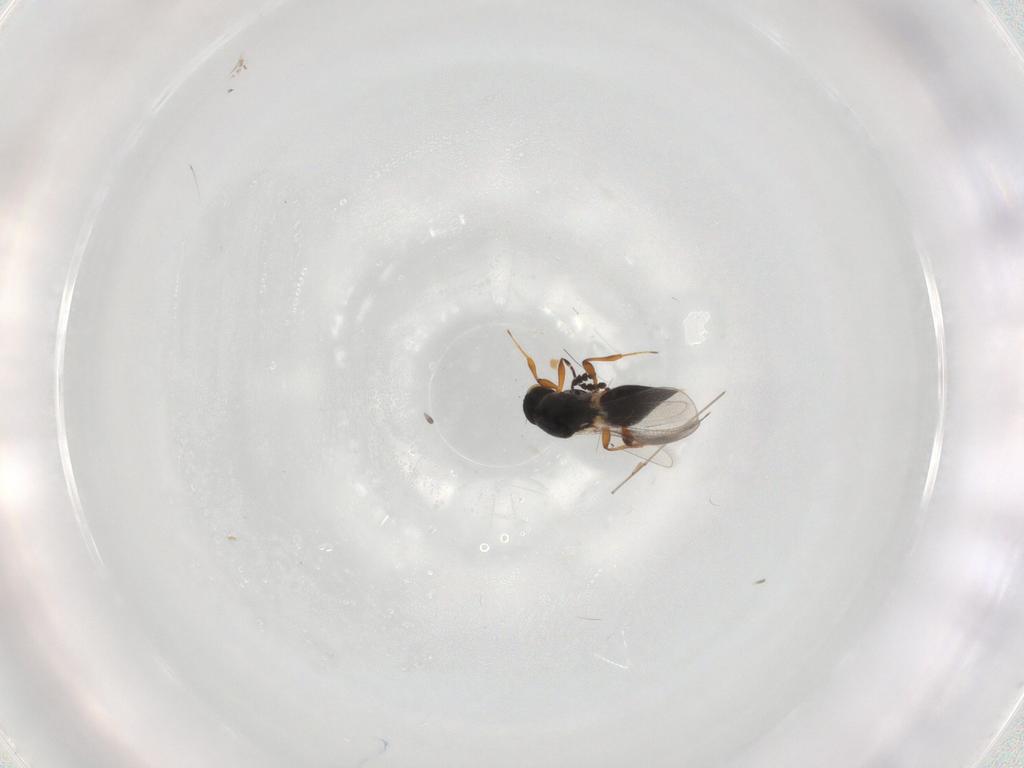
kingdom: Animalia
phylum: Arthropoda
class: Insecta
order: Hymenoptera
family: Platygastridae
